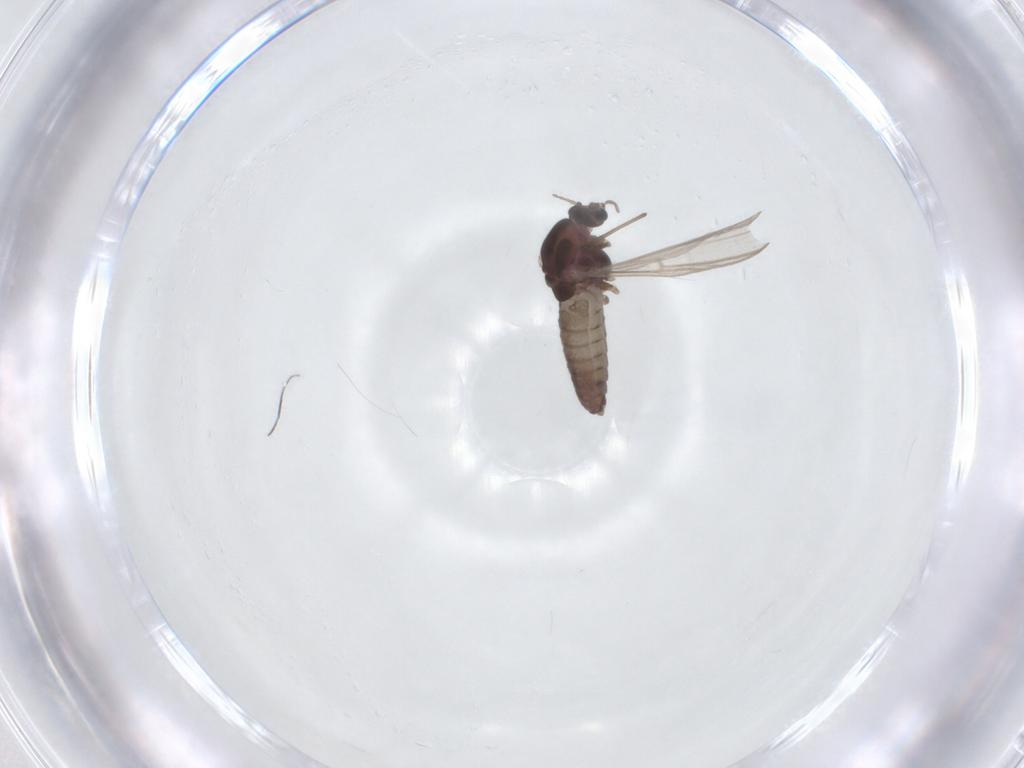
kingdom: Animalia
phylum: Arthropoda
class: Insecta
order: Diptera
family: Chironomidae
